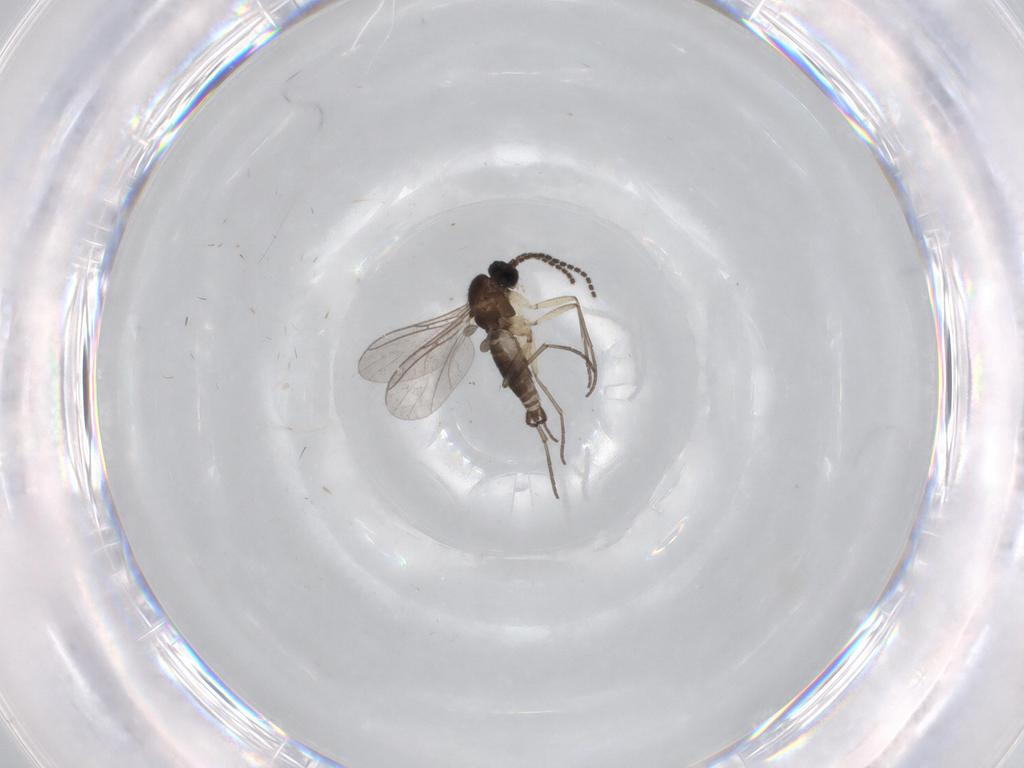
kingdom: Animalia
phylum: Arthropoda
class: Insecta
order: Diptera
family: Sciaridae
